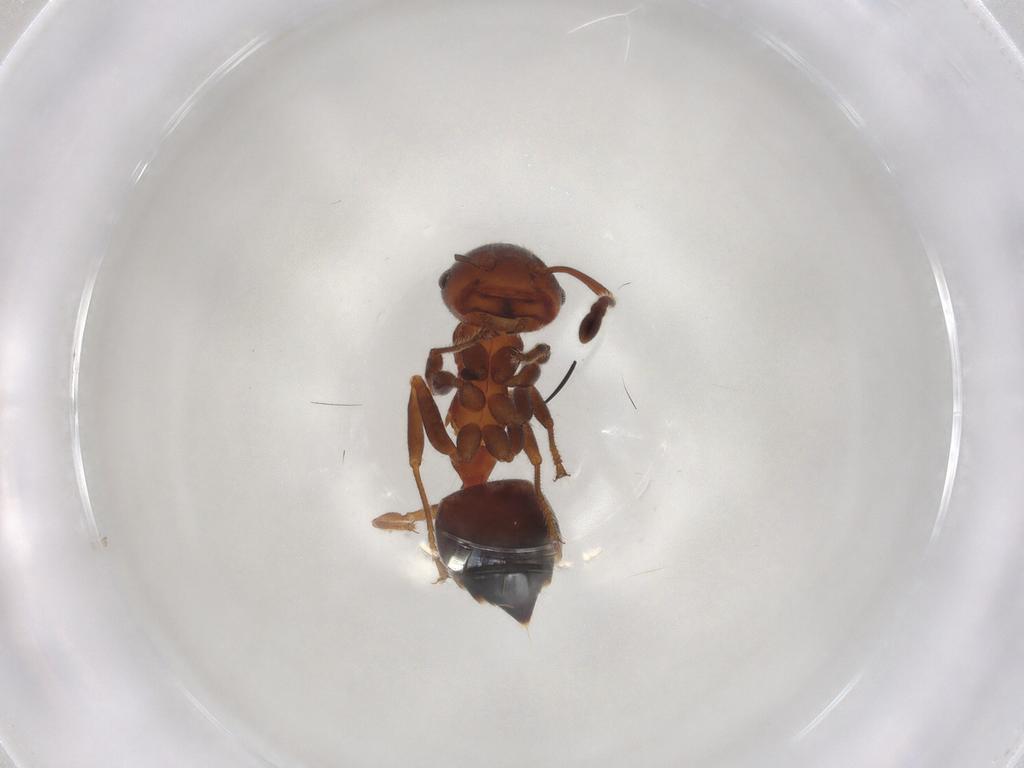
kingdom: Animalia
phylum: Arthropoda
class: Insecta
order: Hymenoptera
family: Formicidae
